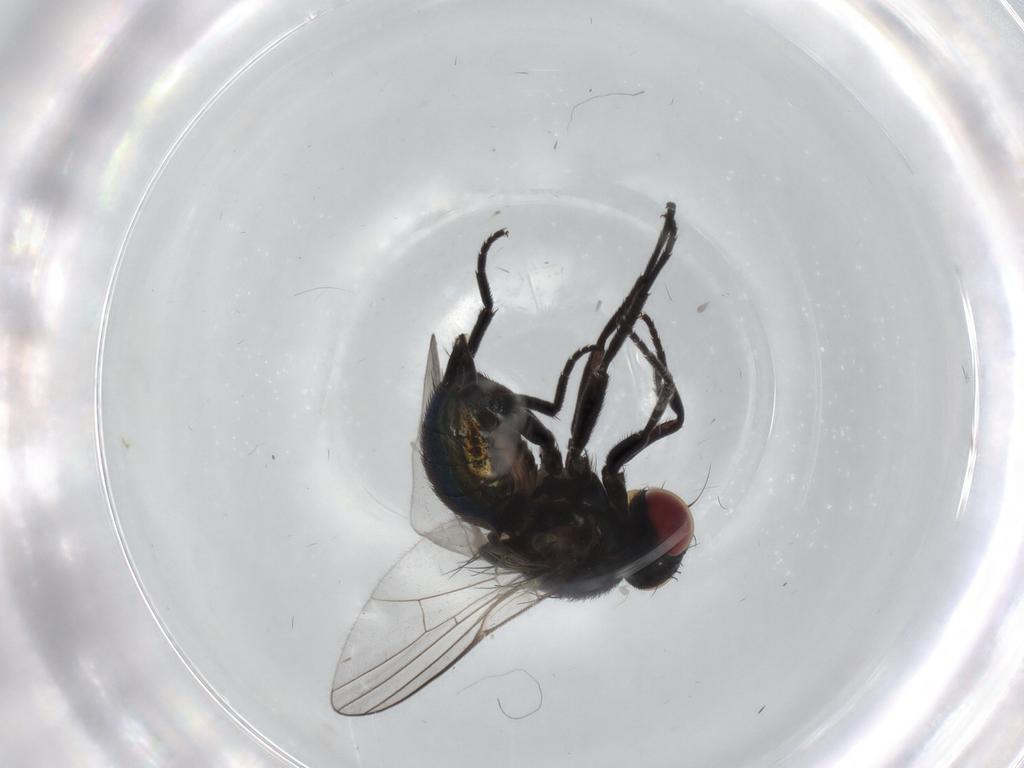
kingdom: Animalia
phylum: Arthropoda
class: Insecta
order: Diptera
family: Agromyzidae
